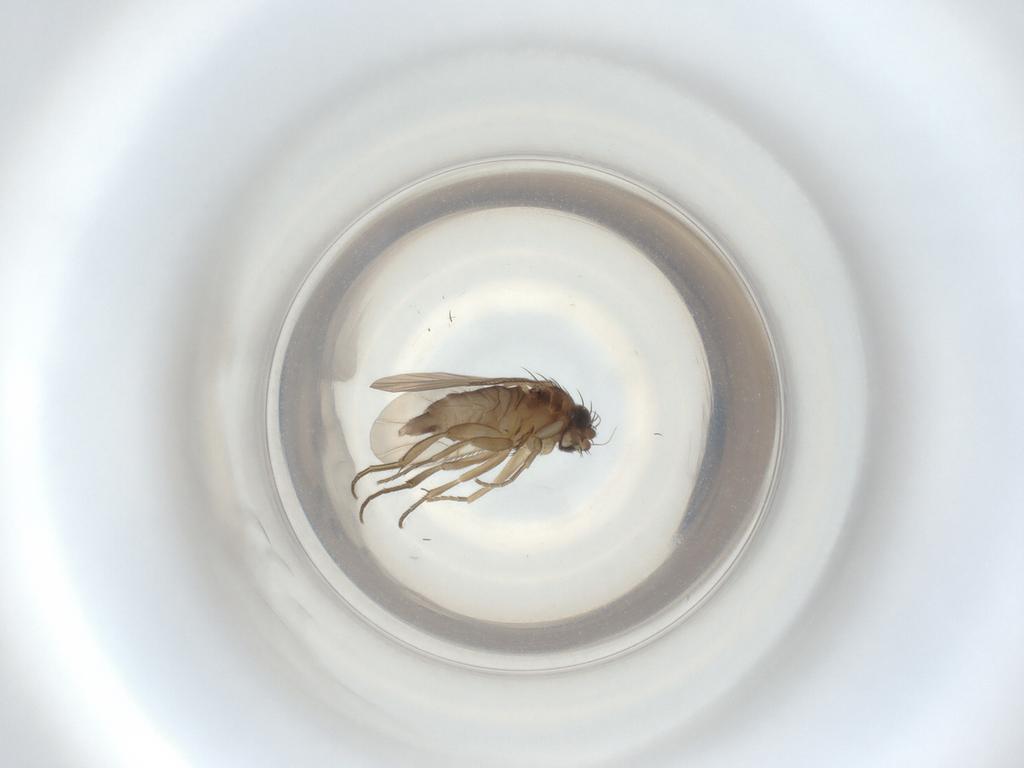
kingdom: Animalia
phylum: Arthropoda
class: Insecta
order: Diptera
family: Phoridae
